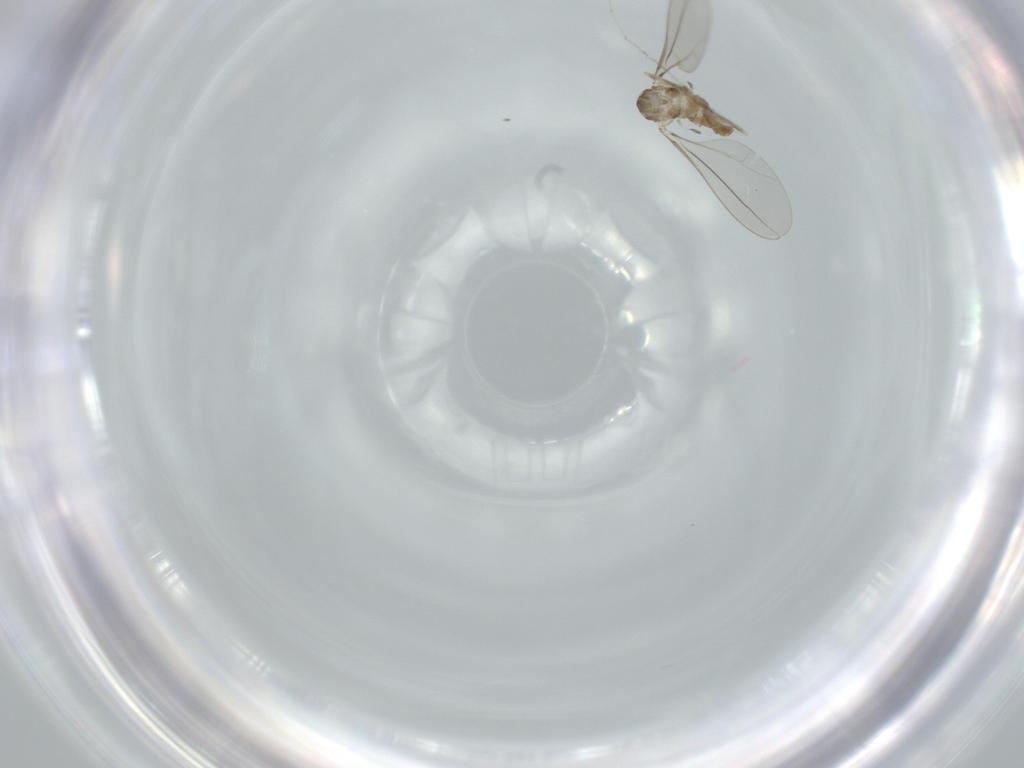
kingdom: Animalia
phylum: Arthropoda
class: Insecta
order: Diptera
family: Cecidomyiidae
